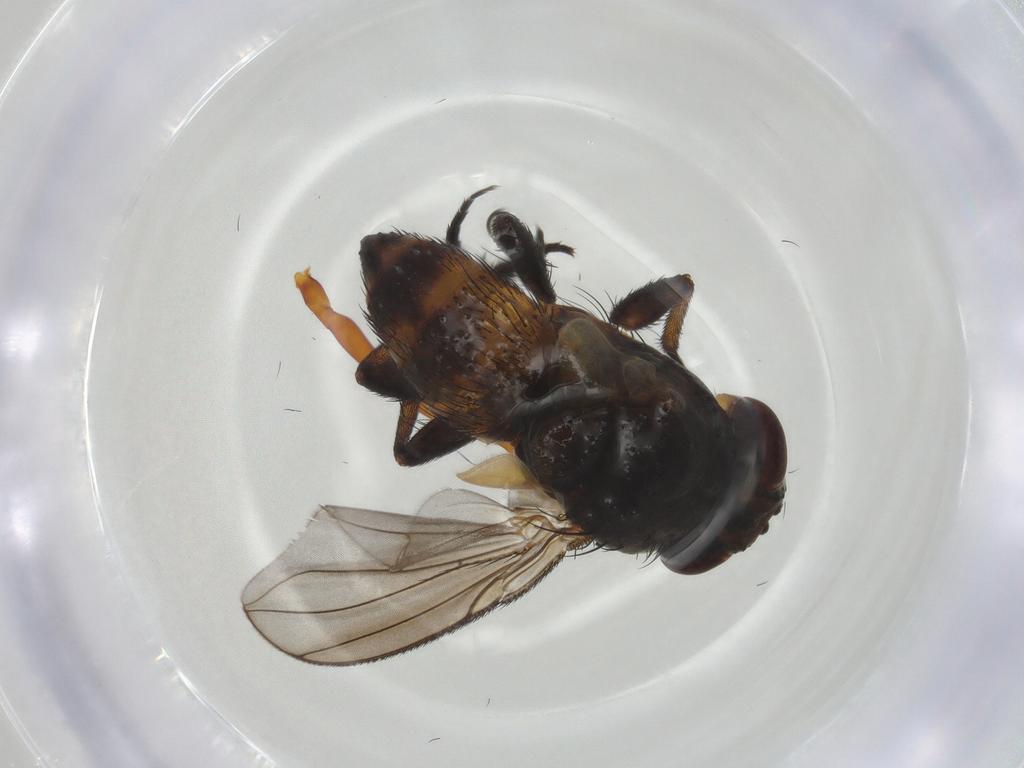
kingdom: Animalia
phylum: Arthropoda
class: Insecta
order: Diptera
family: Tachinidae
